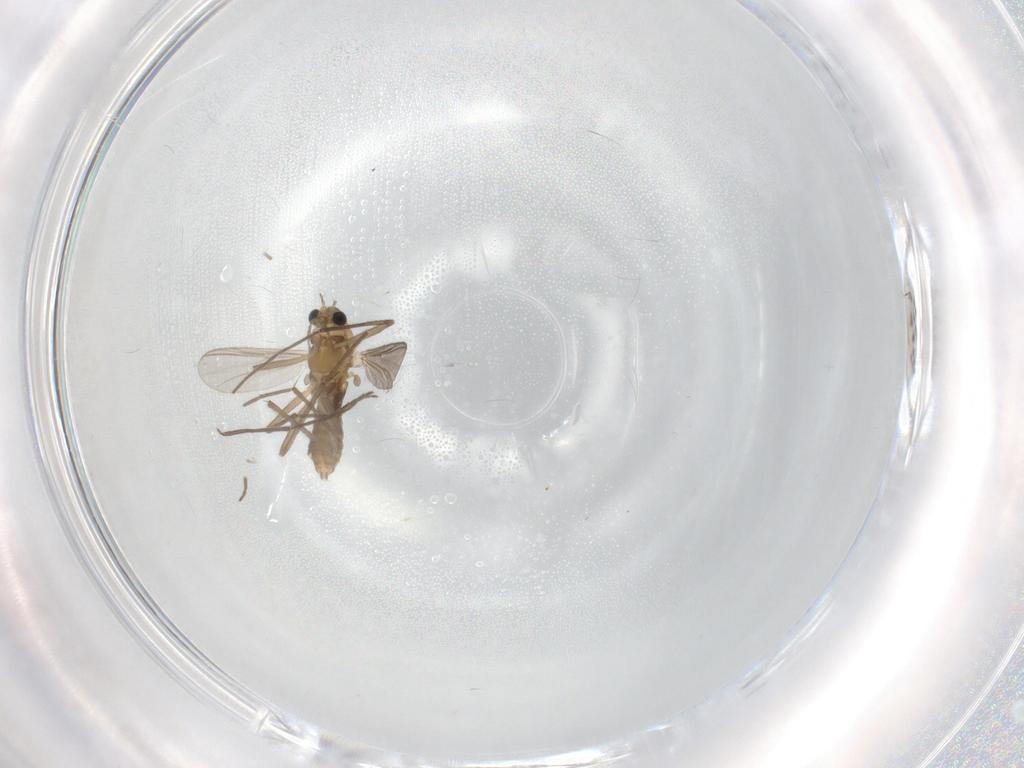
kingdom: Animalia
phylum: Arthropoda
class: Insecta
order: Diptera
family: Chironomidae
